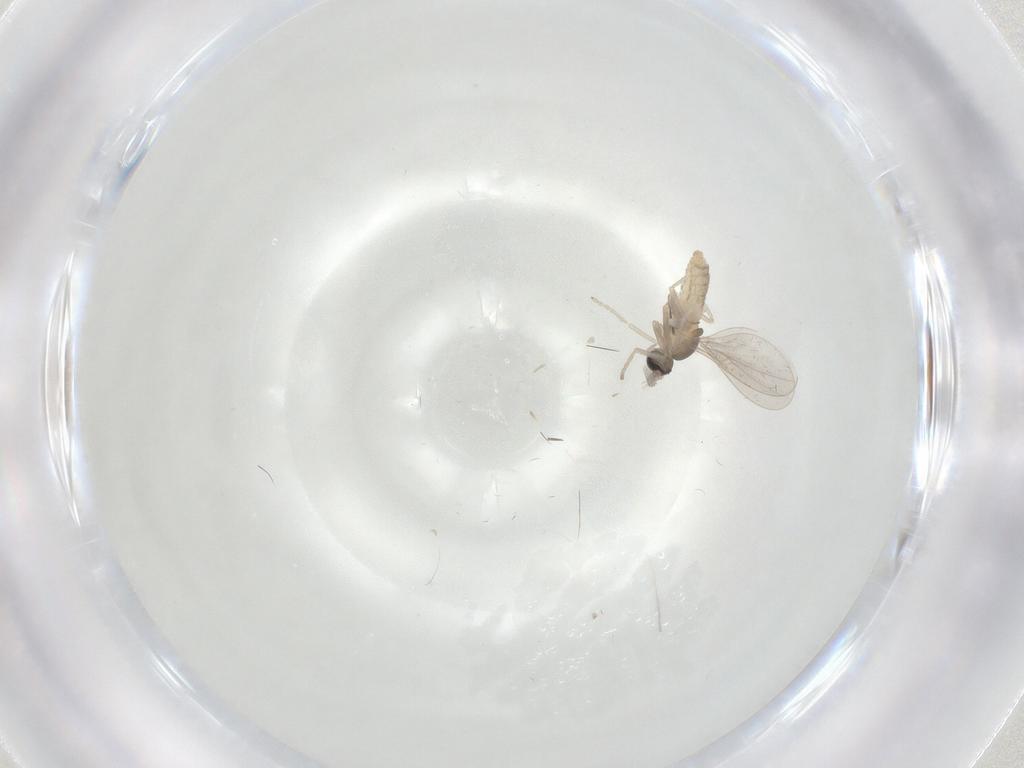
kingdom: Animalia
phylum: Arthropoda
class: Insecta
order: Diptera
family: Cecidomyiidae
